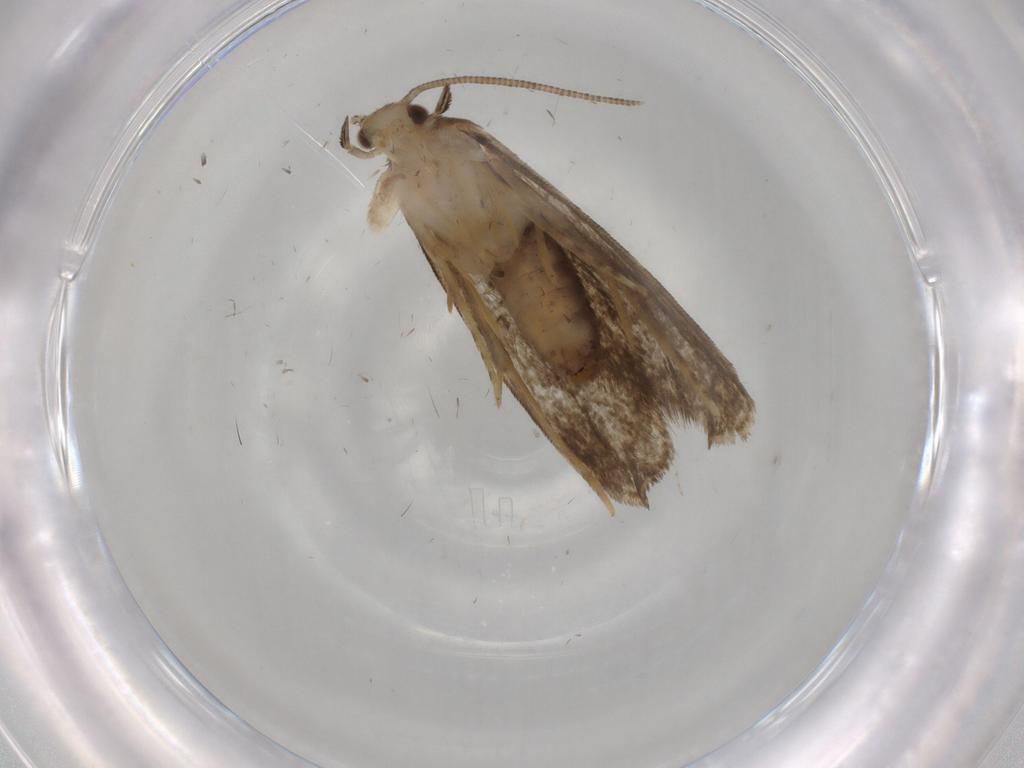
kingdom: Animalia
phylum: Arthropoda
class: Insecta
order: Lepidoptera
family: Dryadaulidae
